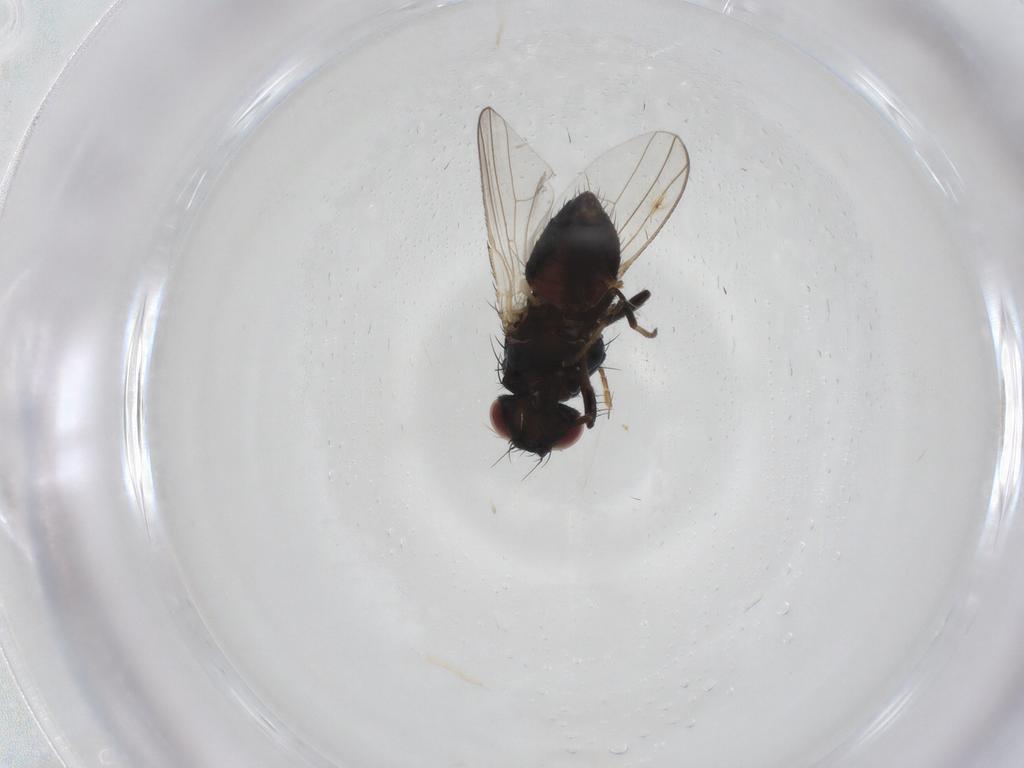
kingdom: Animalia
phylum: Arthropoda
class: Insecta
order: Diptera
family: Carnidae
